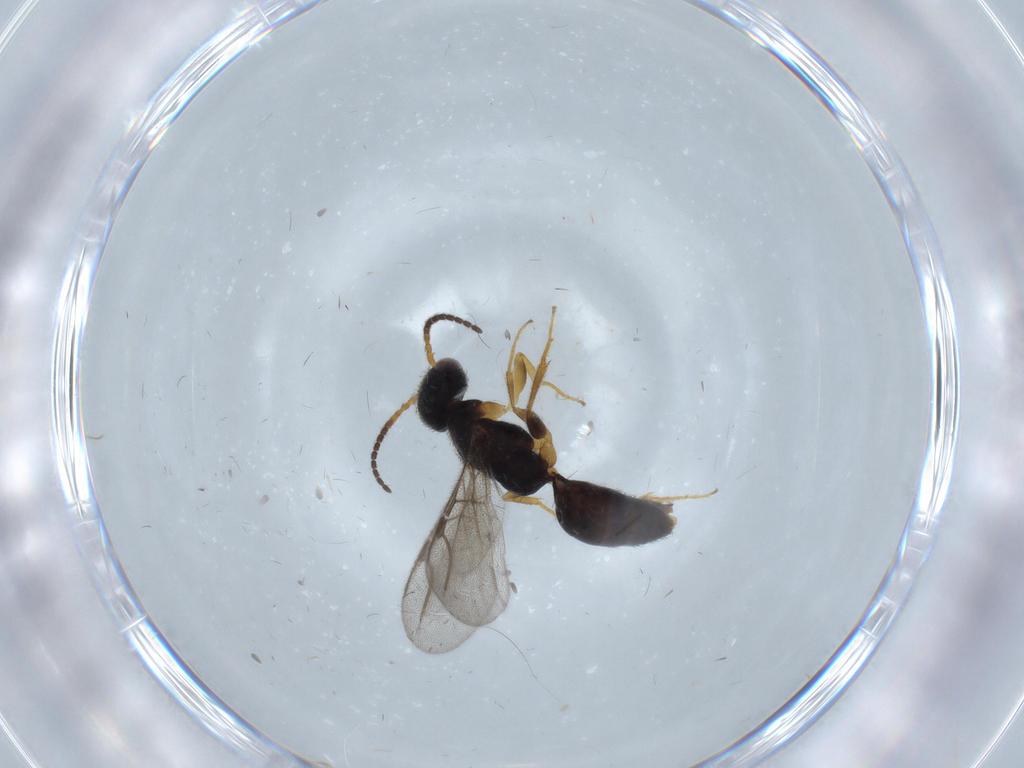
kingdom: Animalia
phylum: Arthropoda
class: Insecta
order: Hymenoptera
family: Bethylidae
